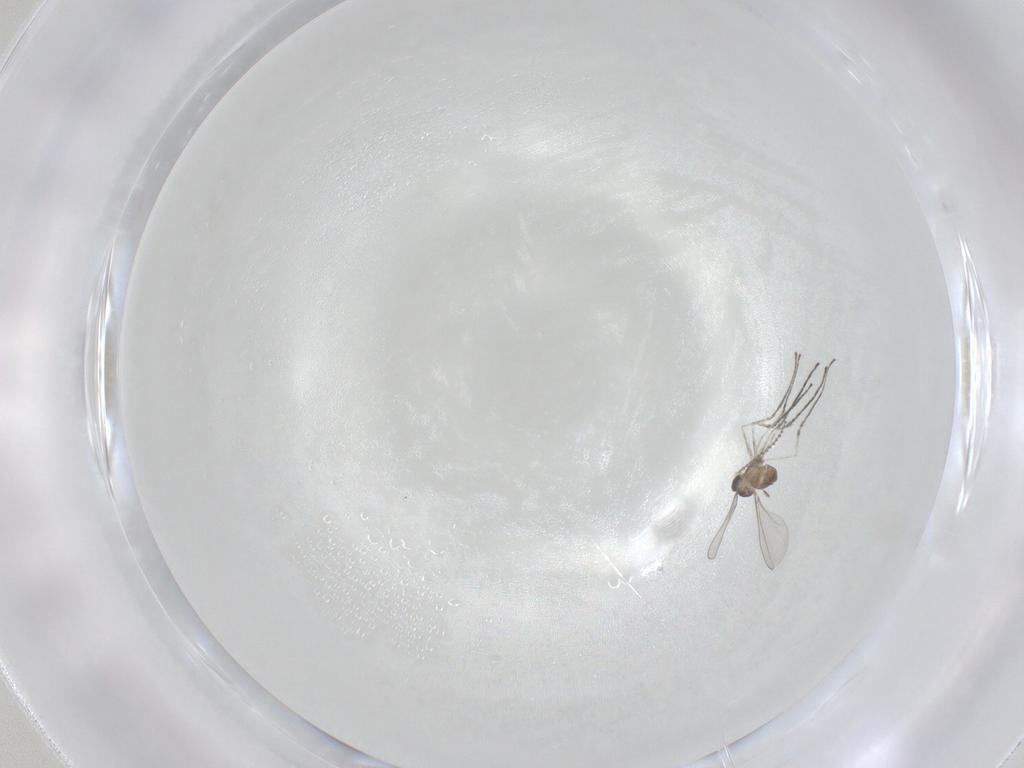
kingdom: Animalia
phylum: Arthropoda
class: Insecta
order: Diptera
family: Cecidomyiidae
